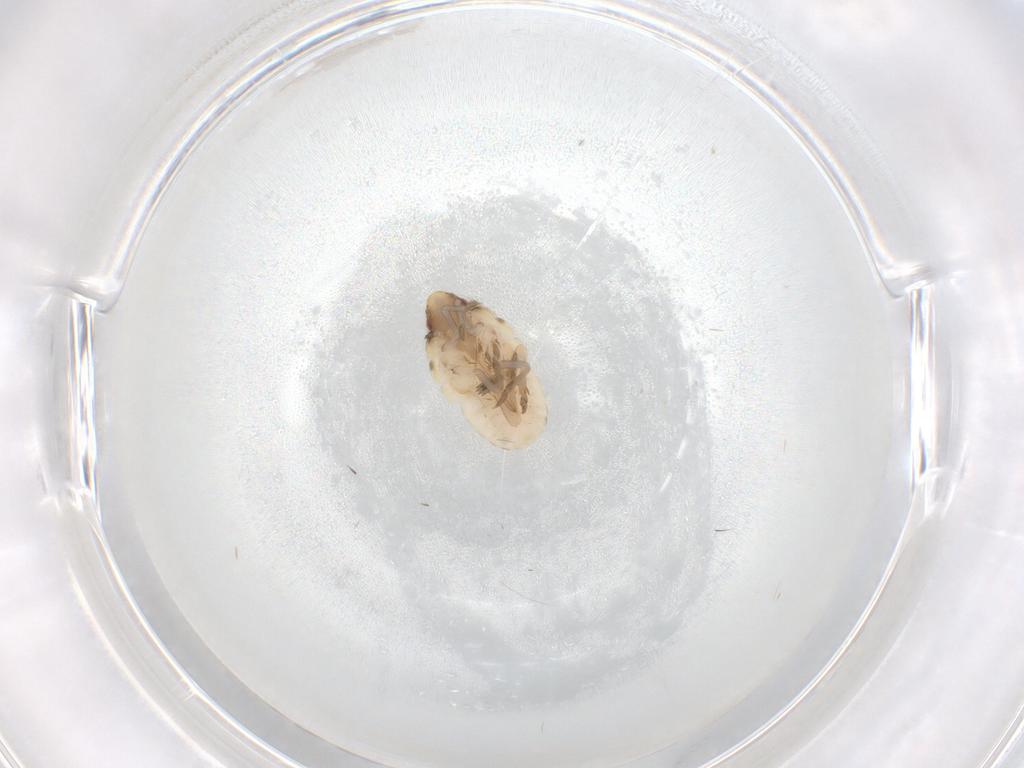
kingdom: Animalia
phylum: Arthropoda
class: Insecta
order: Hemiptera
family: Flatidae
